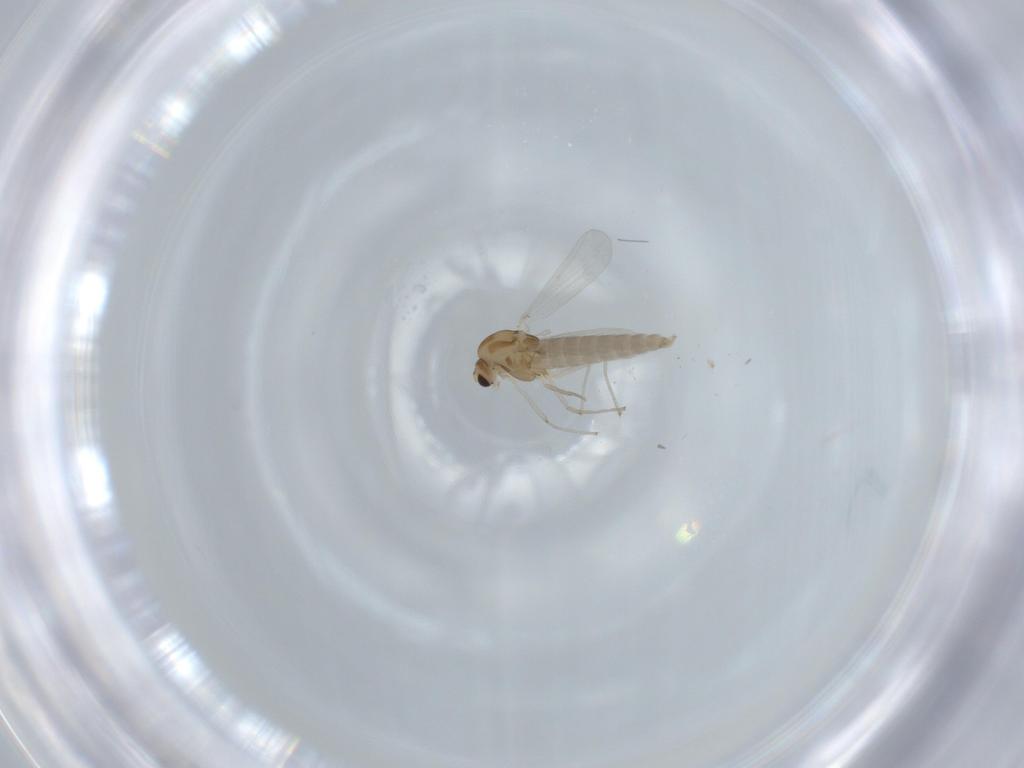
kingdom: Animalia
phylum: Arthropoda
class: Insecta
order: Diptera
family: Chironomidae
